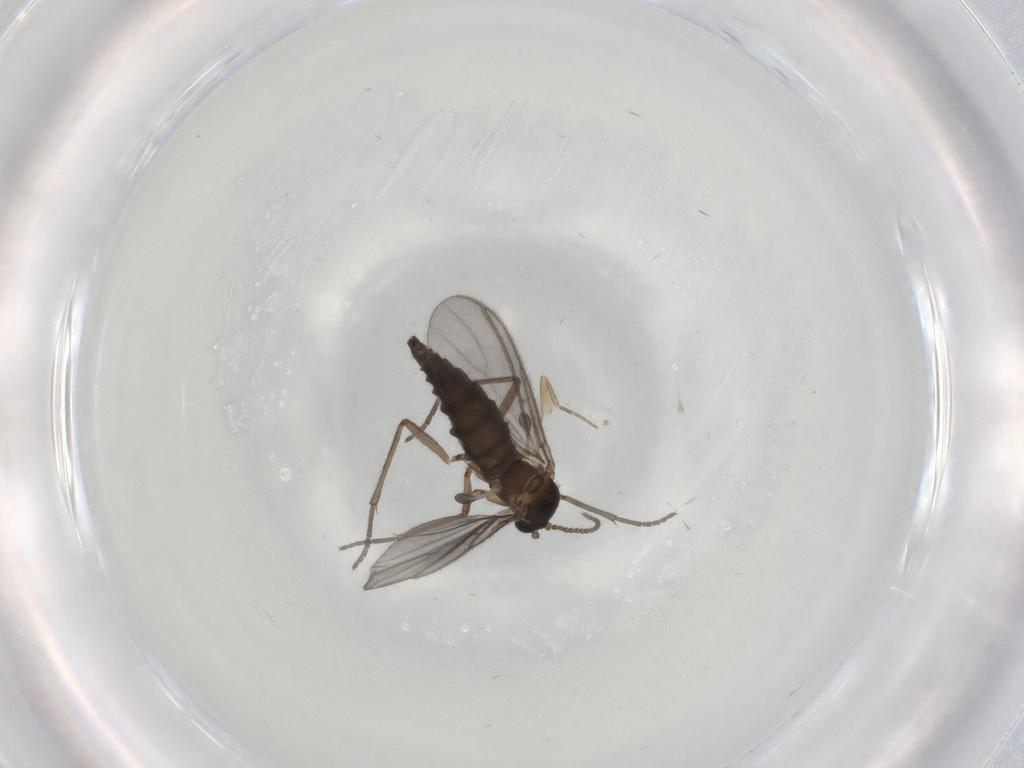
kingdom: Animalia
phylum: Arthropoda
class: Insecta
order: Diptera
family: Sciaridae
